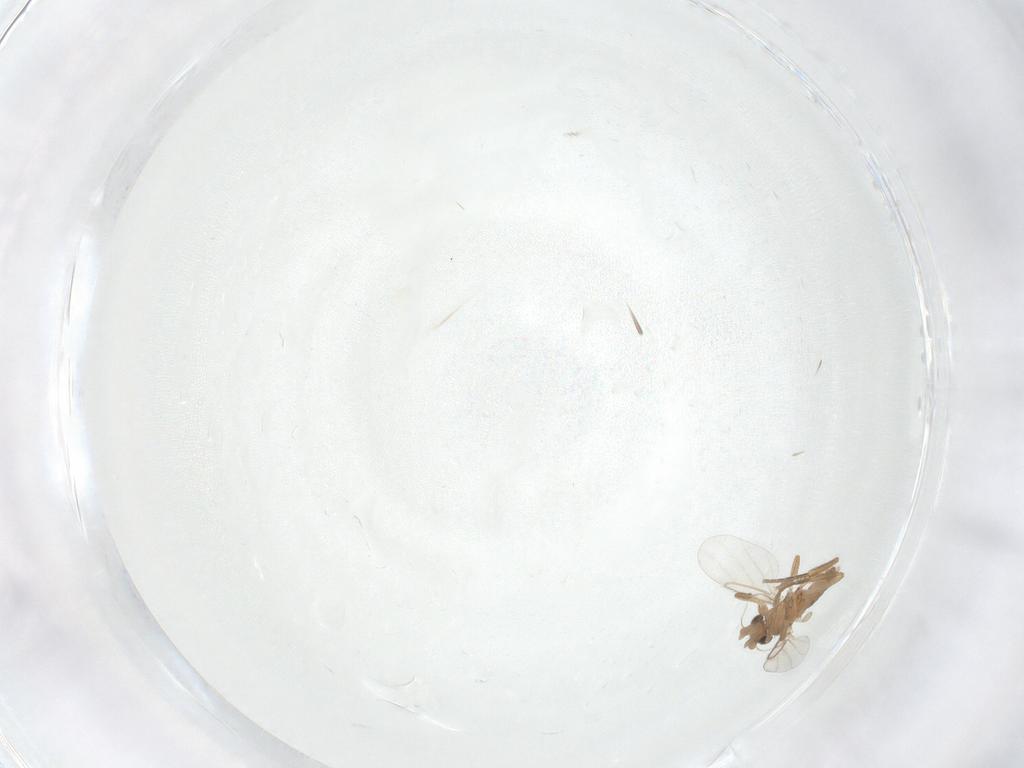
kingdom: Animalia
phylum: Arthropoda
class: Insecta
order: Diptera
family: Phoridae
